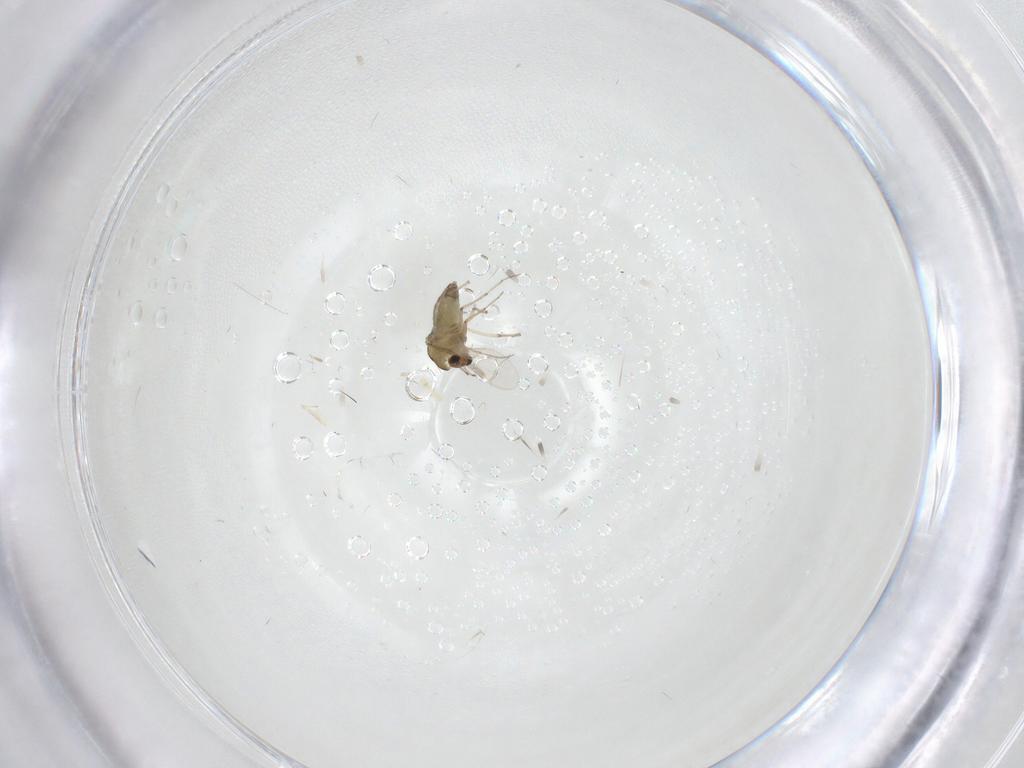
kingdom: Animalia
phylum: Arthropoda
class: Insecta
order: Diptera
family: Chironomidae
